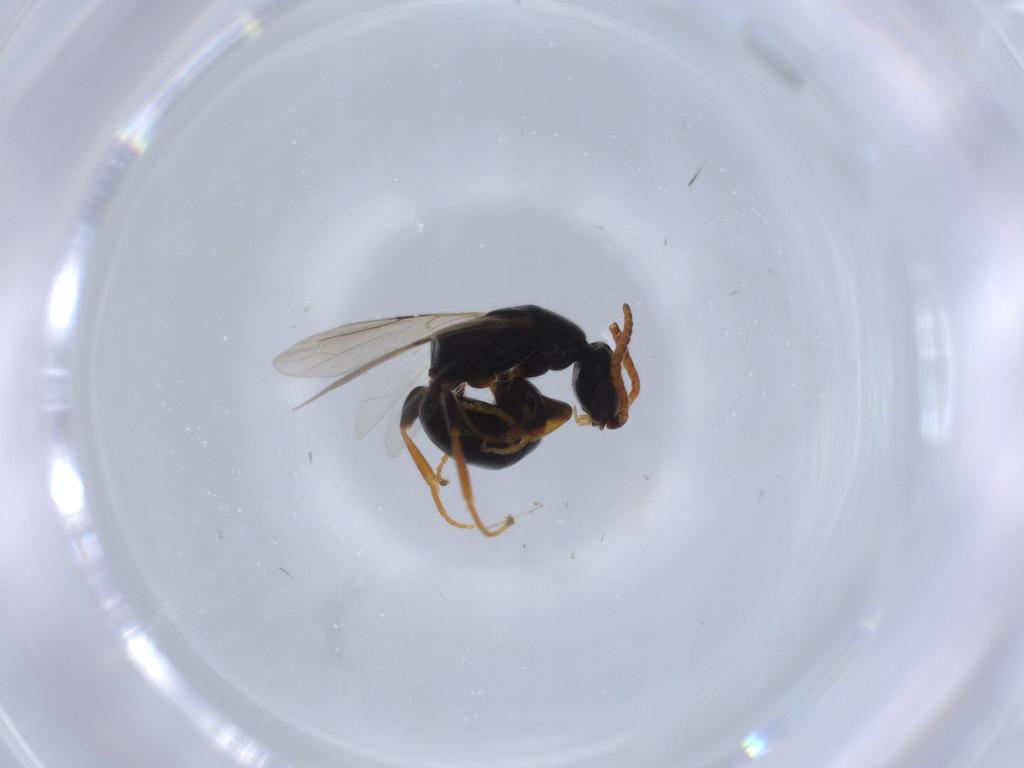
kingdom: Animalia
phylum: Arthropoda
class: Insecta
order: Hymenoptera
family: Bethylidae
